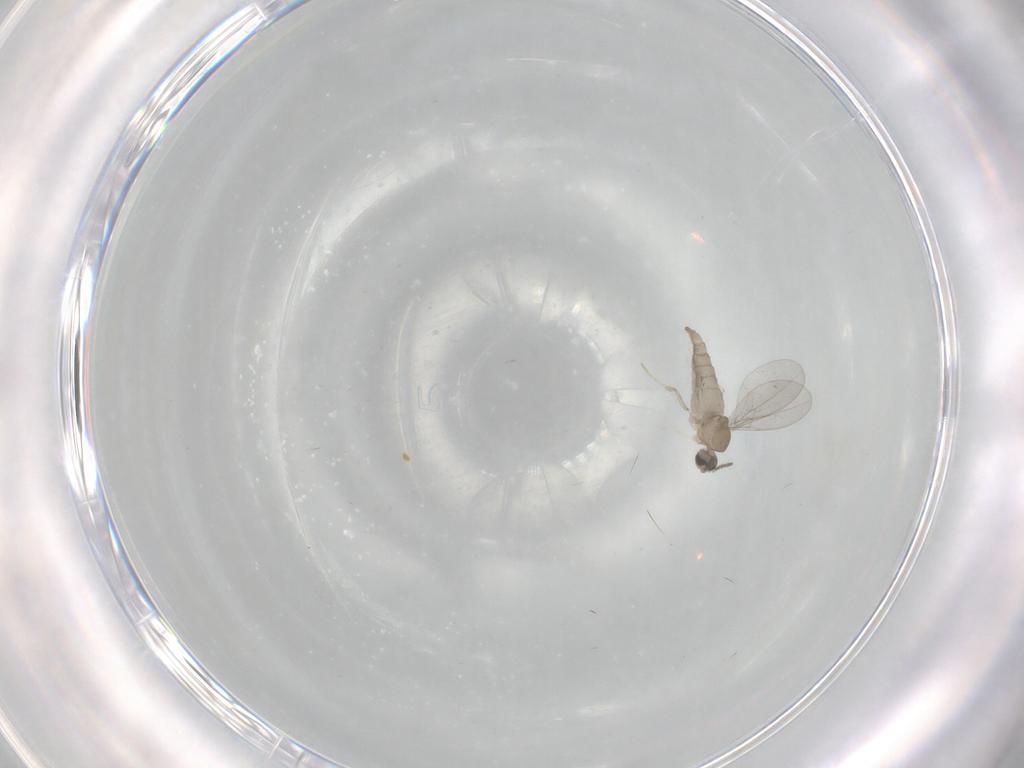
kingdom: Animalia
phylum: Arthropoda
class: Insecta
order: Diptera
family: Cecidomyiidae
